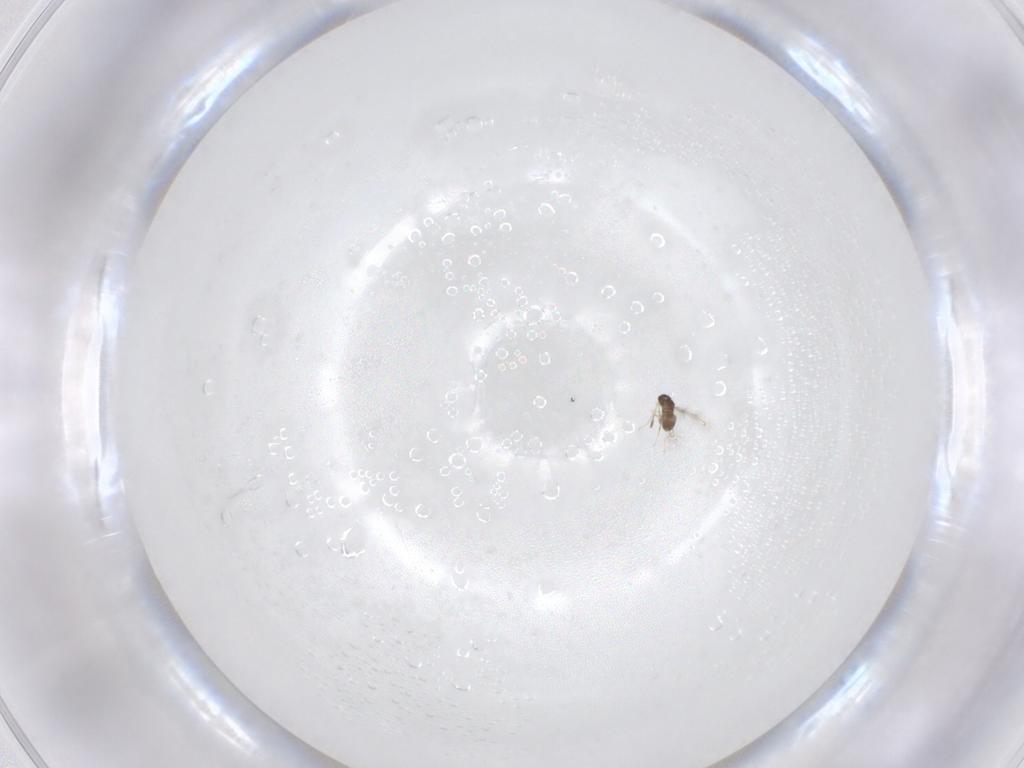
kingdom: Animalia
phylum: Arthropoda
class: Insecta
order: Hymenoptera
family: Mymaridae
